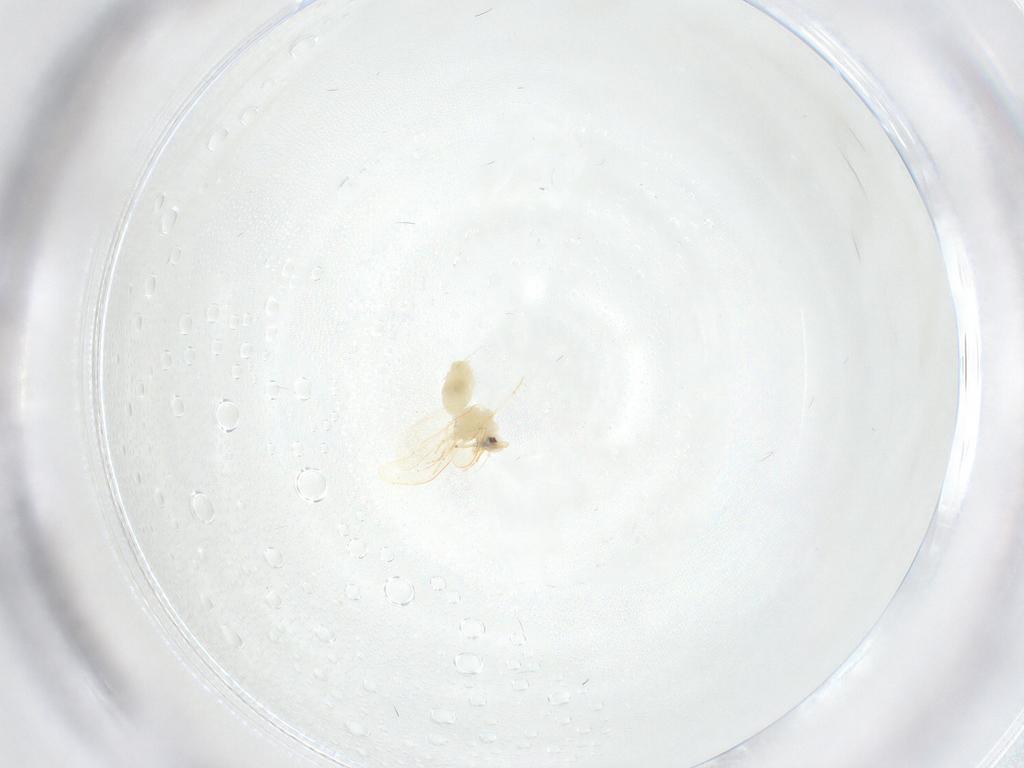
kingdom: Animalia
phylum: Arthropoda
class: Insecta
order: Hemiptera
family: Aleyrodidae
